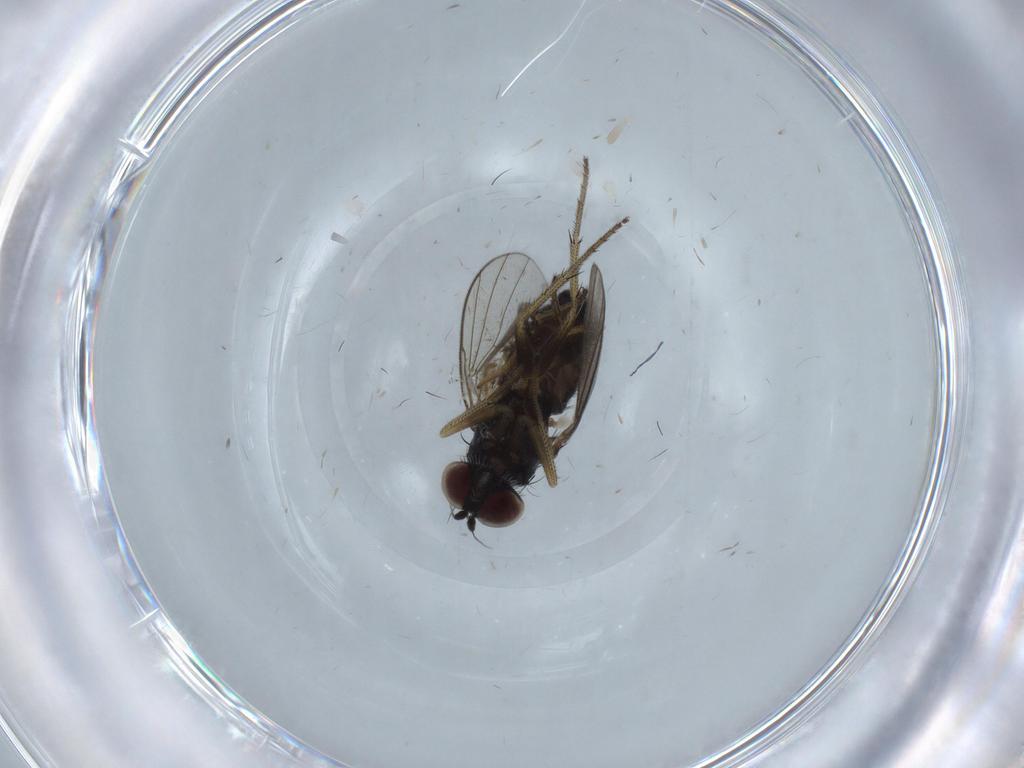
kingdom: Animalia
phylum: Arthropoda
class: Insecta
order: Diptera
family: Dolichopodidae
